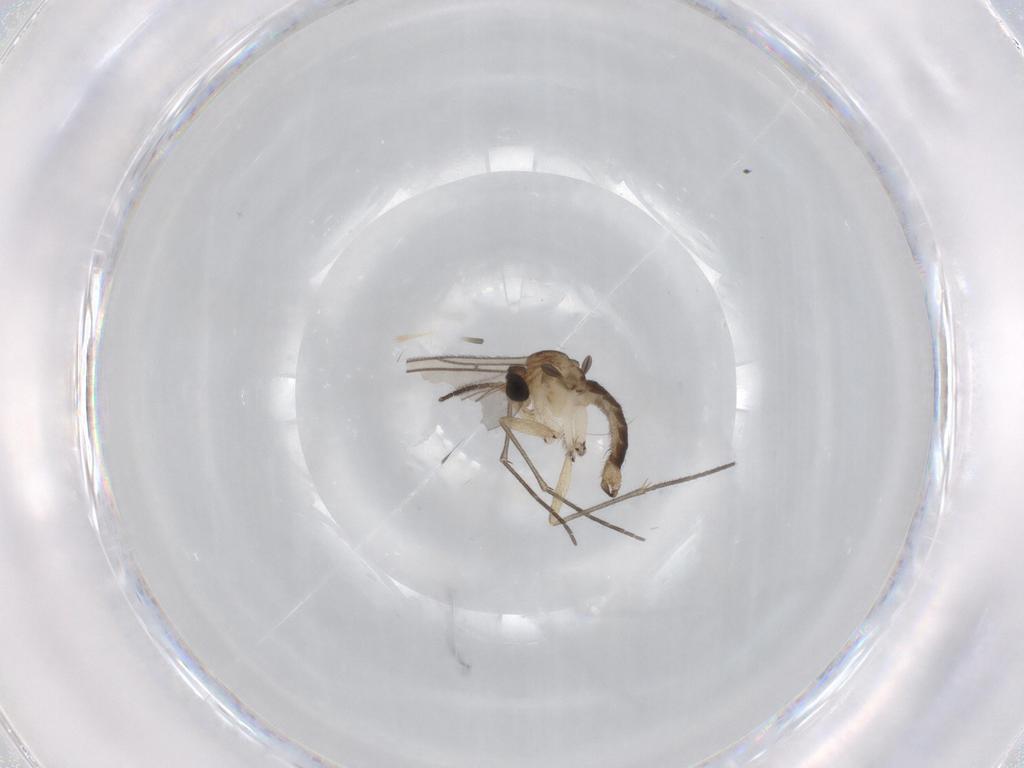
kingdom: Animalia
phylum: Arthropoda
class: Insecta
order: Diptera
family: Sciaridae
